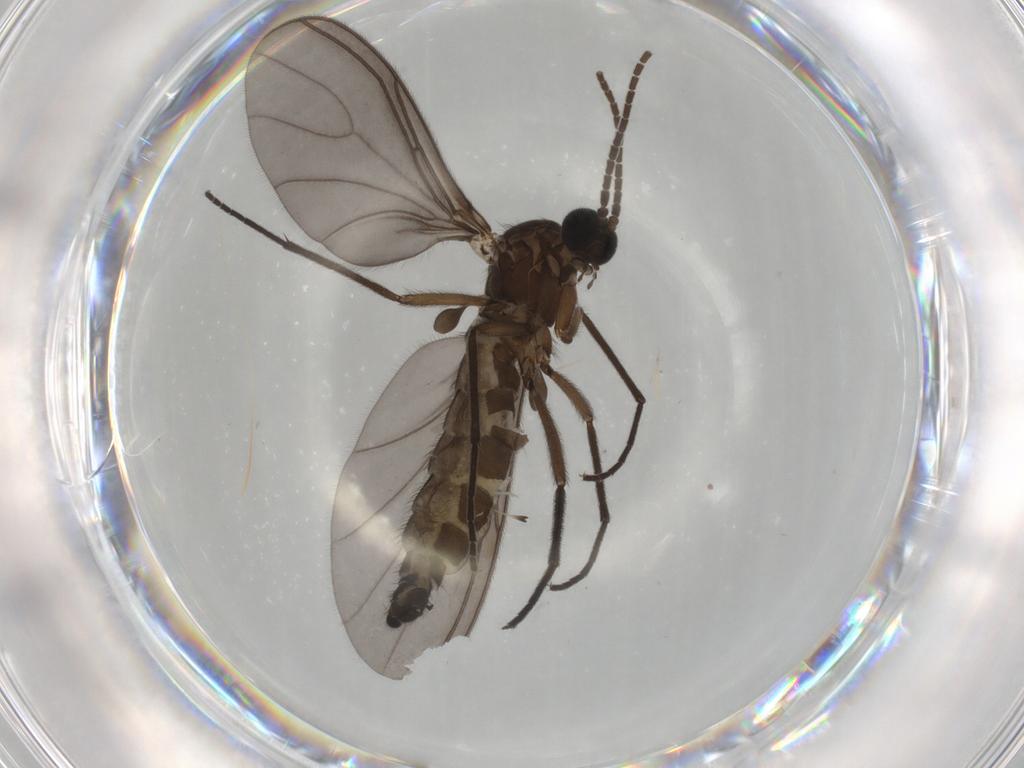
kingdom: Animalia
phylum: Arthropoda
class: Insecta
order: Diptera
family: Sciaridae
